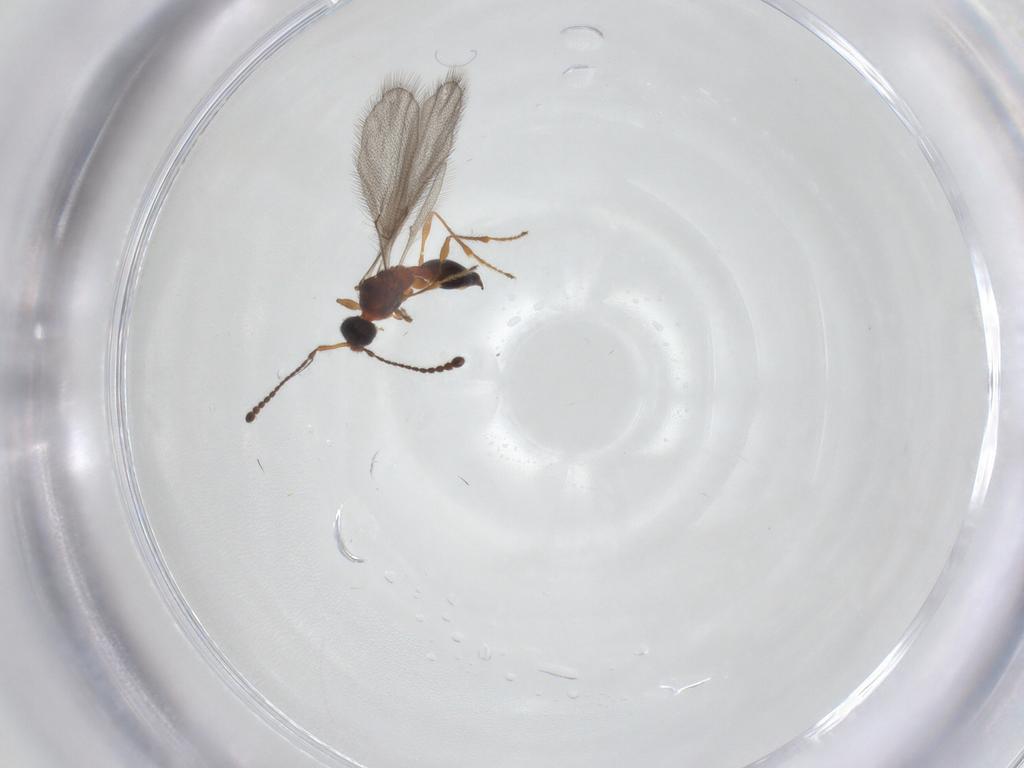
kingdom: Animalia
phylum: Arthropoda
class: Insecta
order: Hymenoptera
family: Diapriidae
